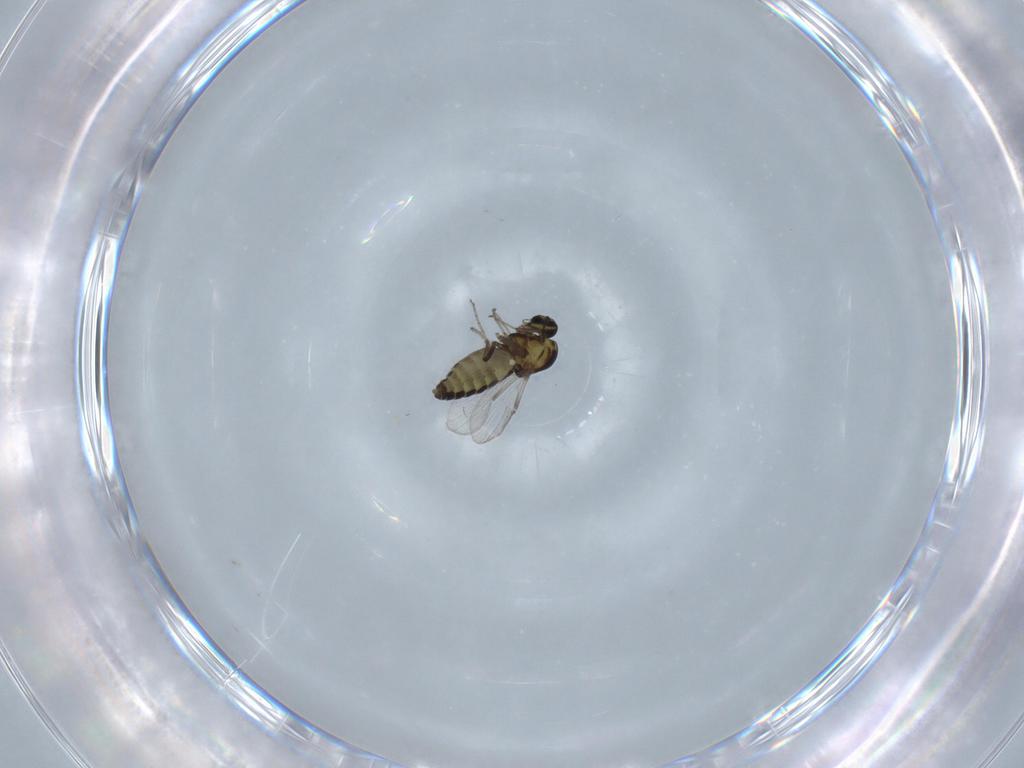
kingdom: Animalia
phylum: Arthropoda
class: Insecta
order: Diptera
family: Ceratopogonidae
